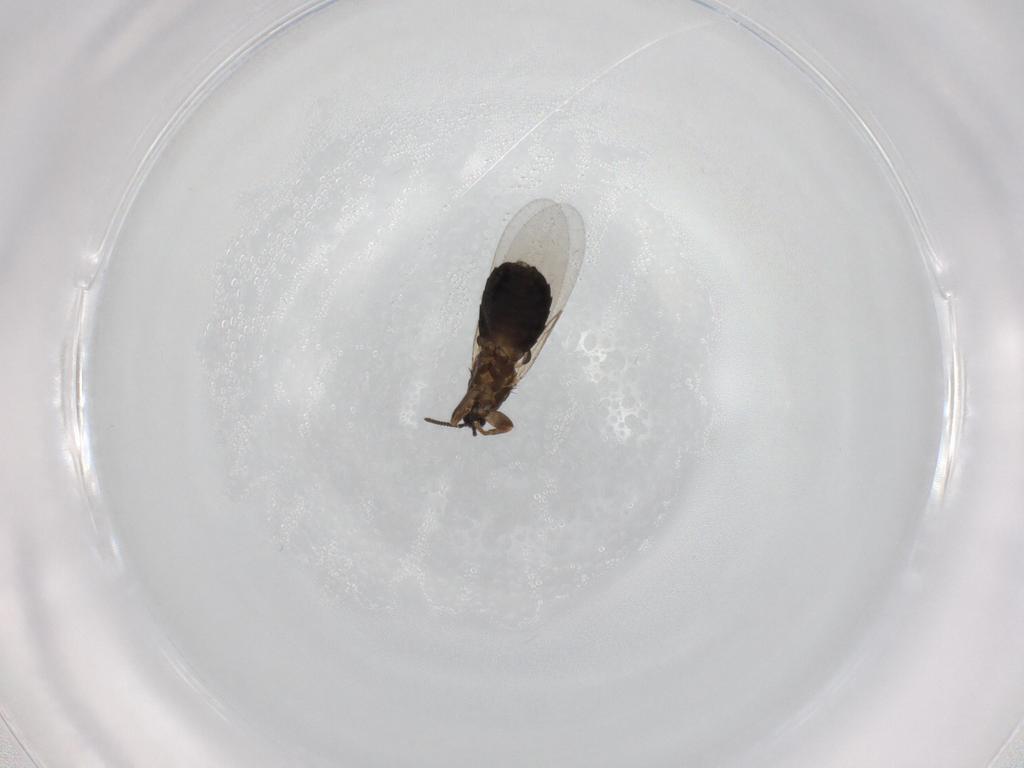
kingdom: Animalia
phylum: Arthropoda
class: Insecta
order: Diptera
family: Scatopsidae
